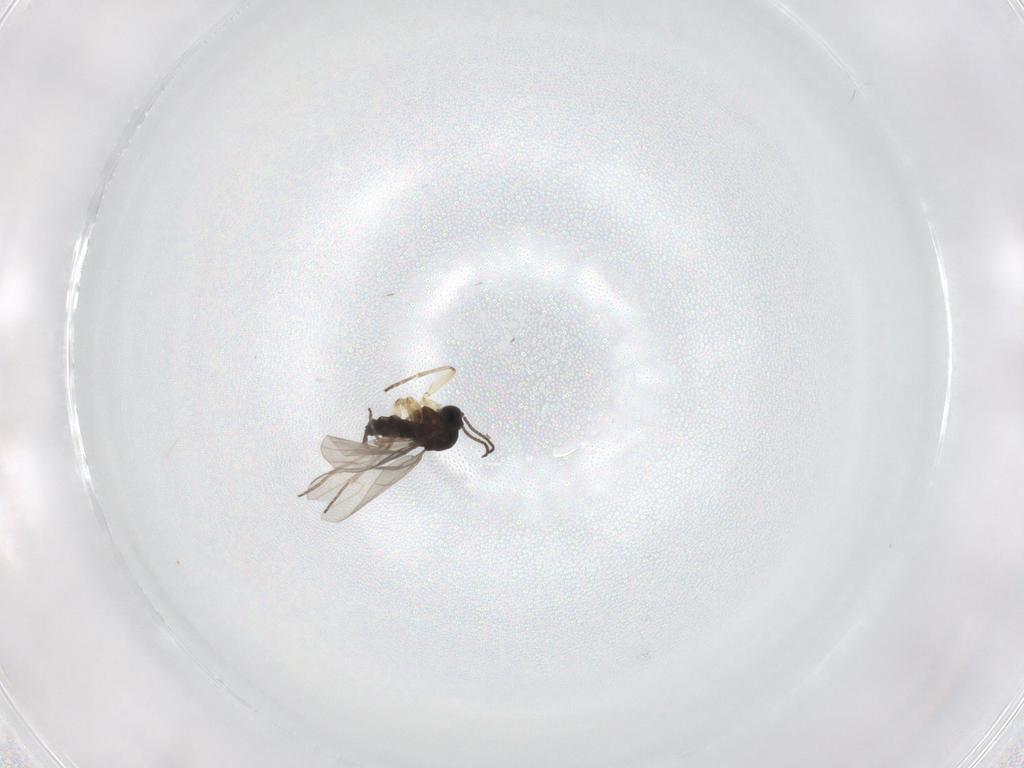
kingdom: Animalia
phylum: Arthropoda
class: Insecta
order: Diptera
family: Sciaridae
